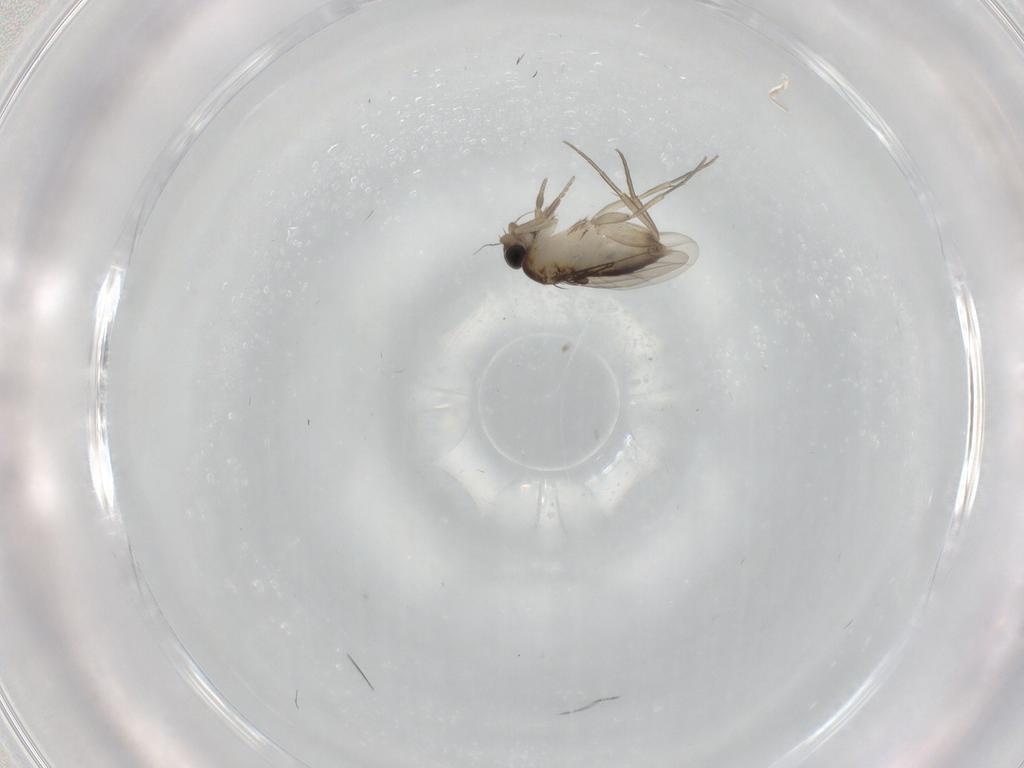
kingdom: Animalia
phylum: Arthropoda
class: Insecta
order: Diptera
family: Phoridae
